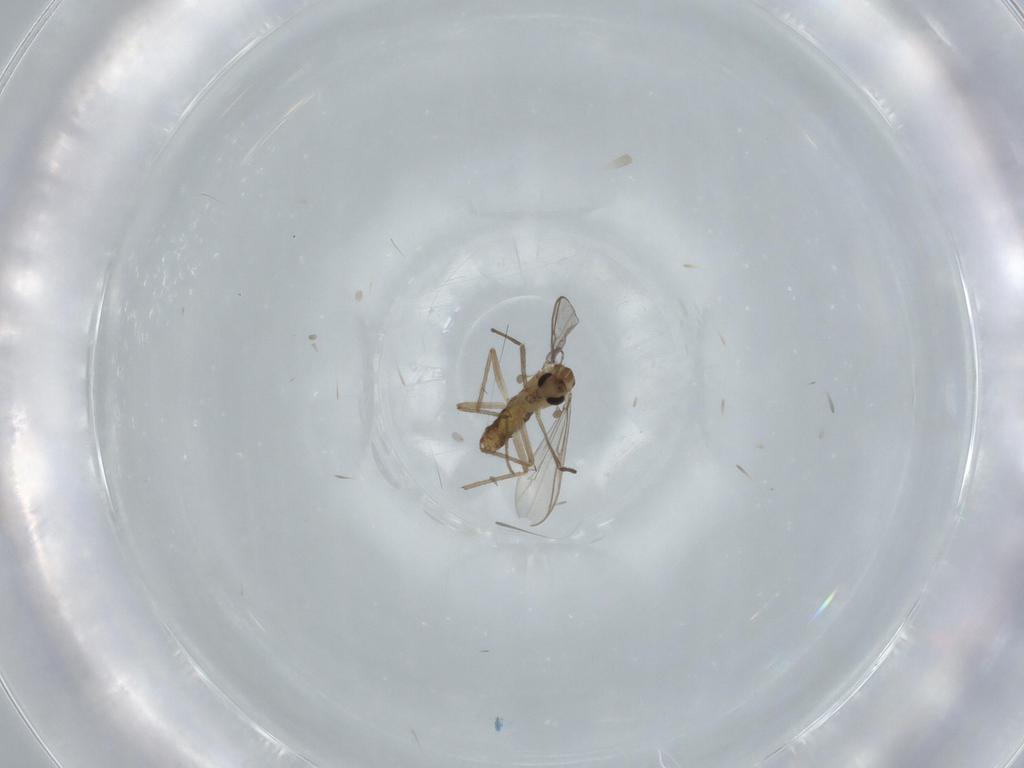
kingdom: Animalia
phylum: Arthropoda
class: Insecta
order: Diptera
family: Chironomidae
